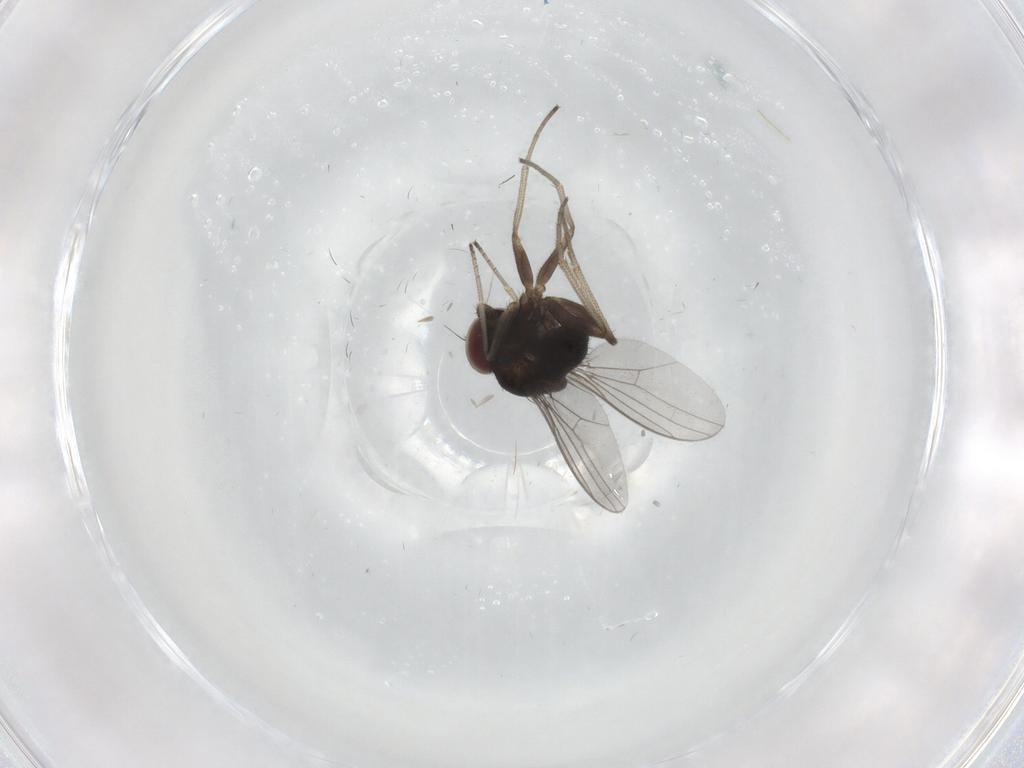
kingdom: Animalia
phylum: Arthropoda
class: Insecta
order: Diptera
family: Dolichopodidae
